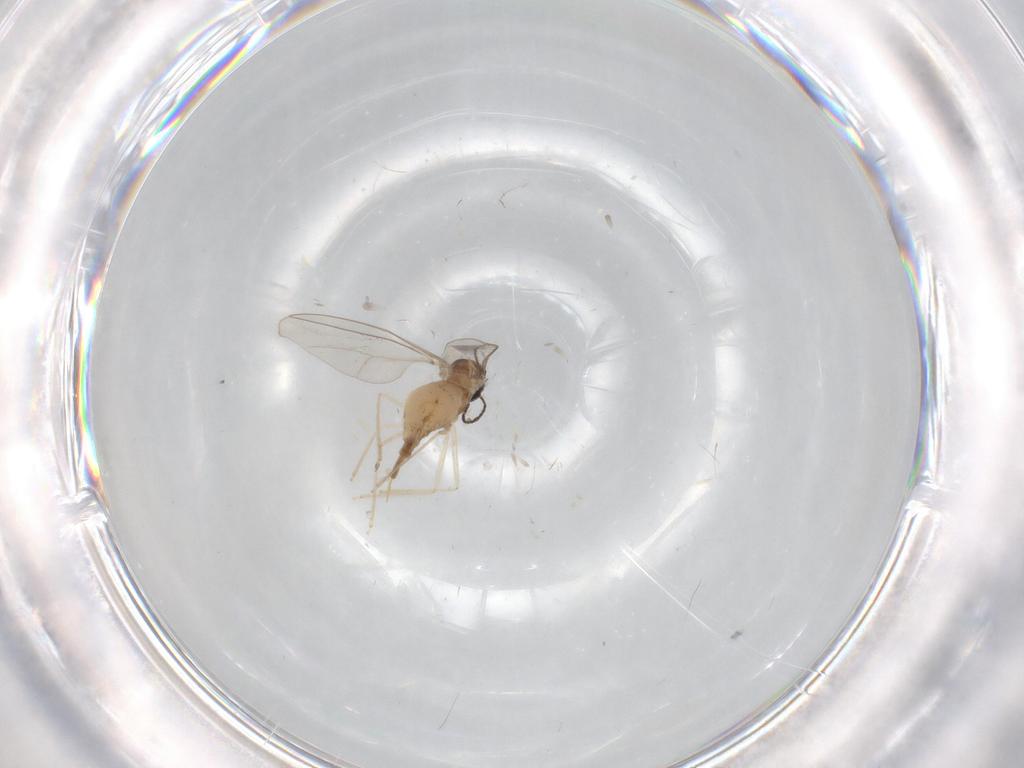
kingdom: Animalia
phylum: Arthropoda
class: Insecta
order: Diptera
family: Cecidomyiidae
